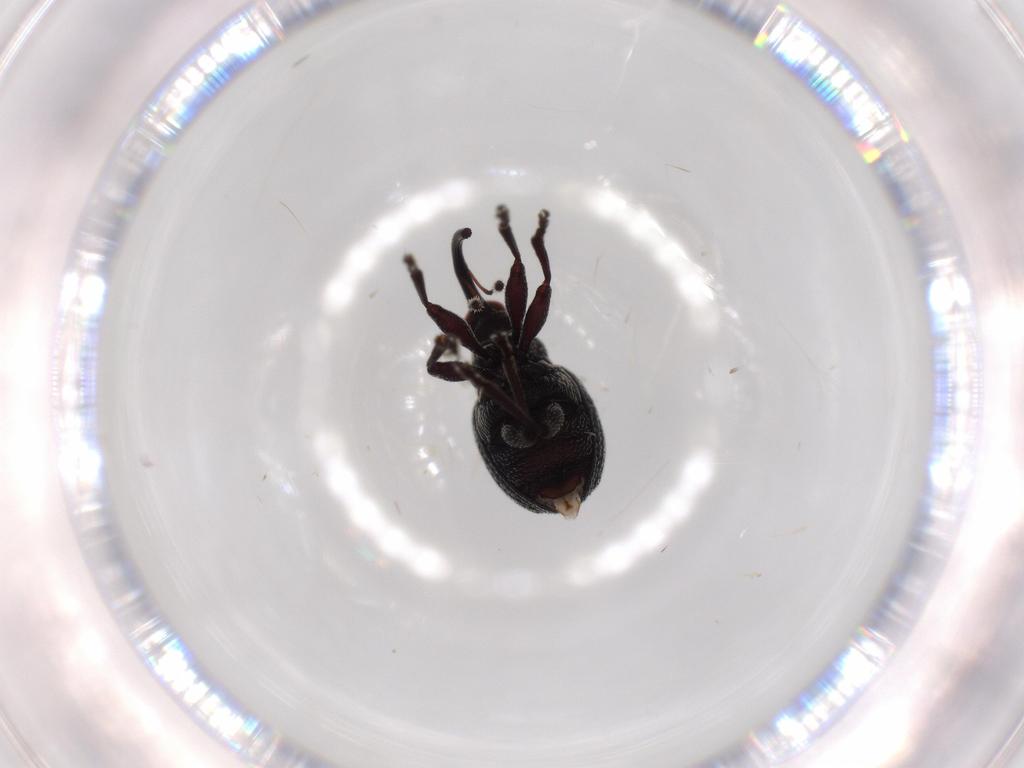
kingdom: Animalia
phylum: Arthropoda
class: Insecta
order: Coleoptera
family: Brentidae
